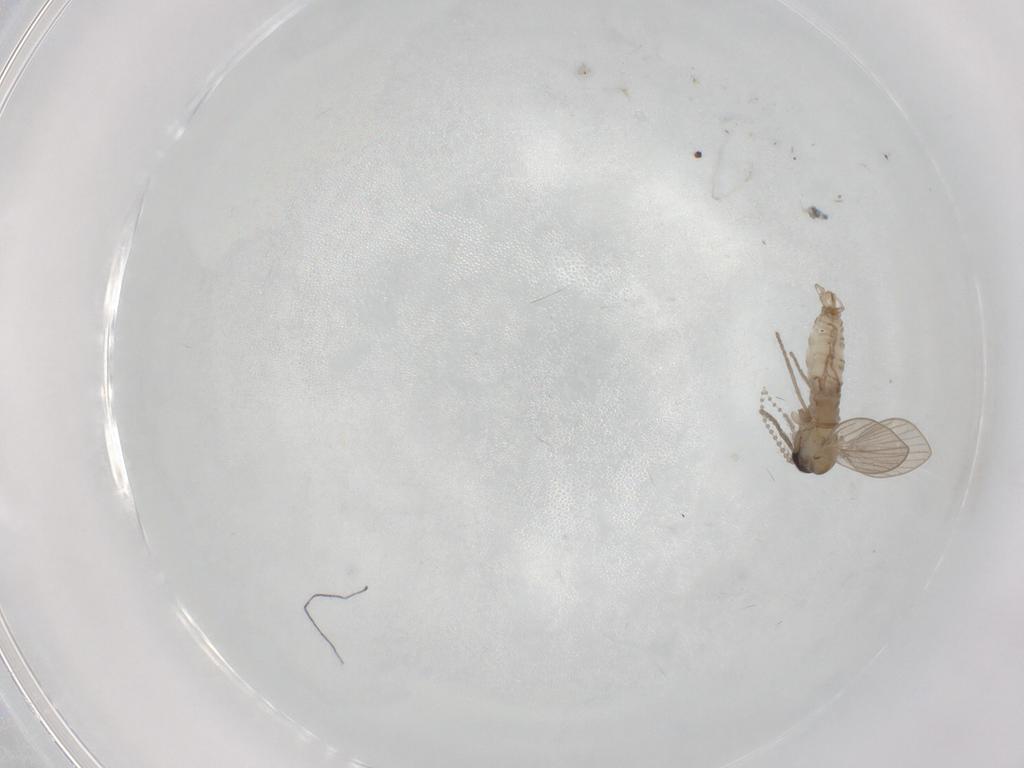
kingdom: Animalia
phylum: Arthropoda
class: Insecta
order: Diptera
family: Psychodidae
